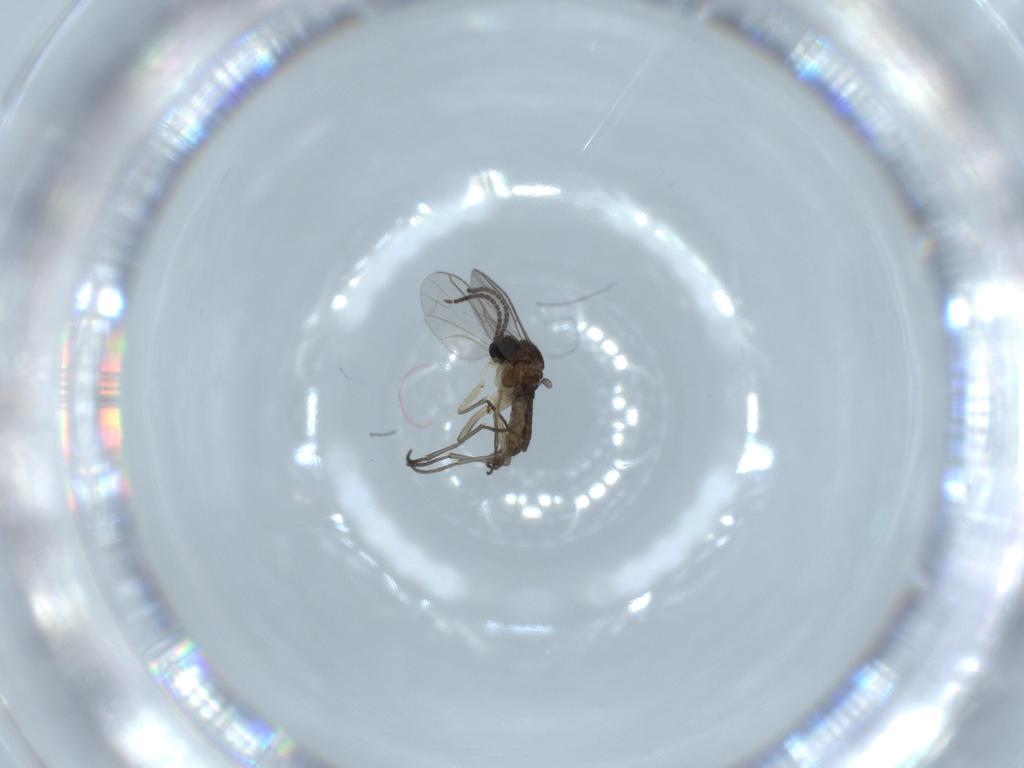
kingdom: Animalia
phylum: Arthropoda
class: Insecta
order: Diptera
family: Sciaridae
